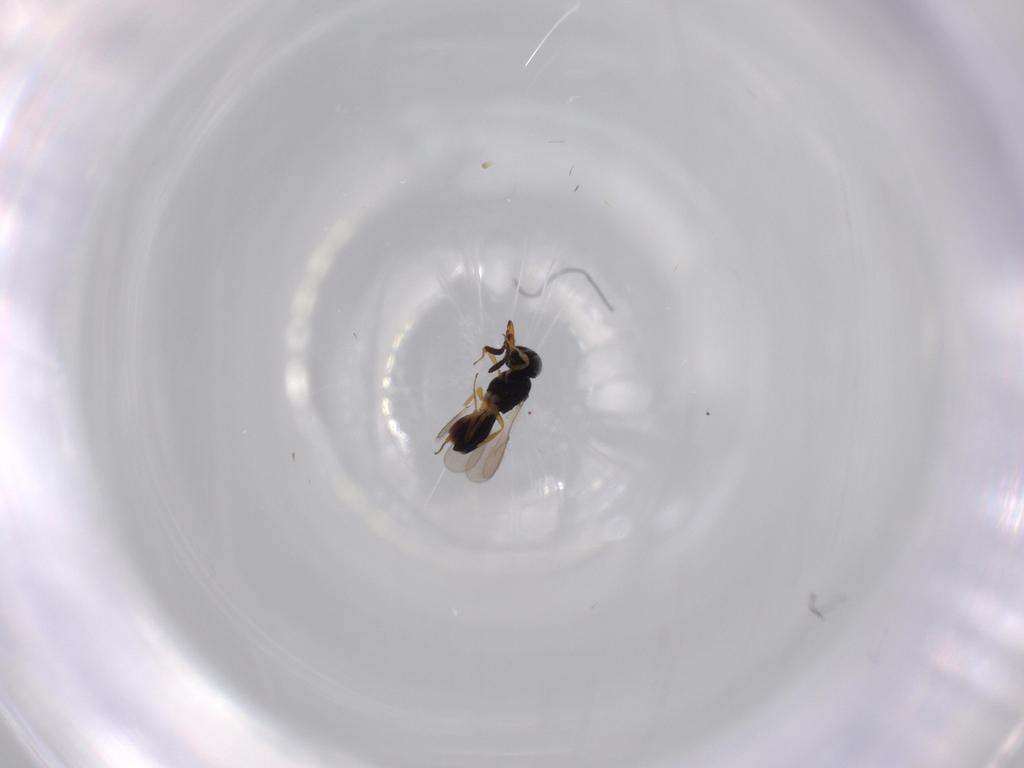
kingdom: Animalia
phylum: Arthropoda
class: Insecta
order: Hymenoptera
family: Scelionidae
